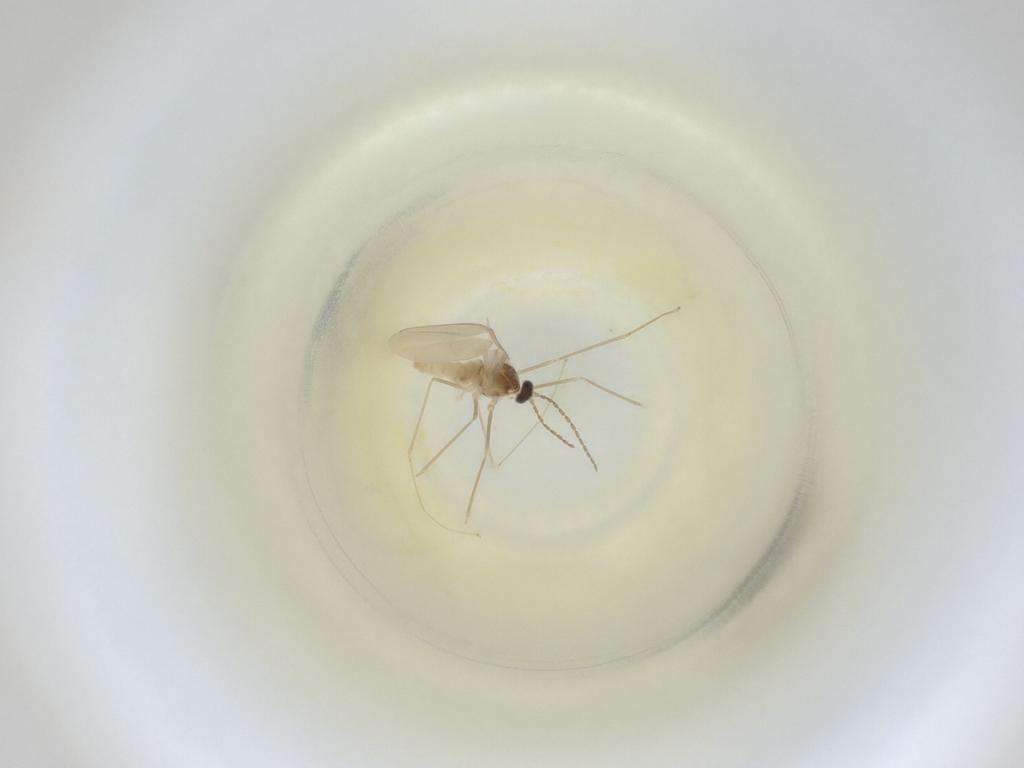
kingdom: Animalia
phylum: Arthropoda
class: Insecta
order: Diptera
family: Cecidomyiidae
